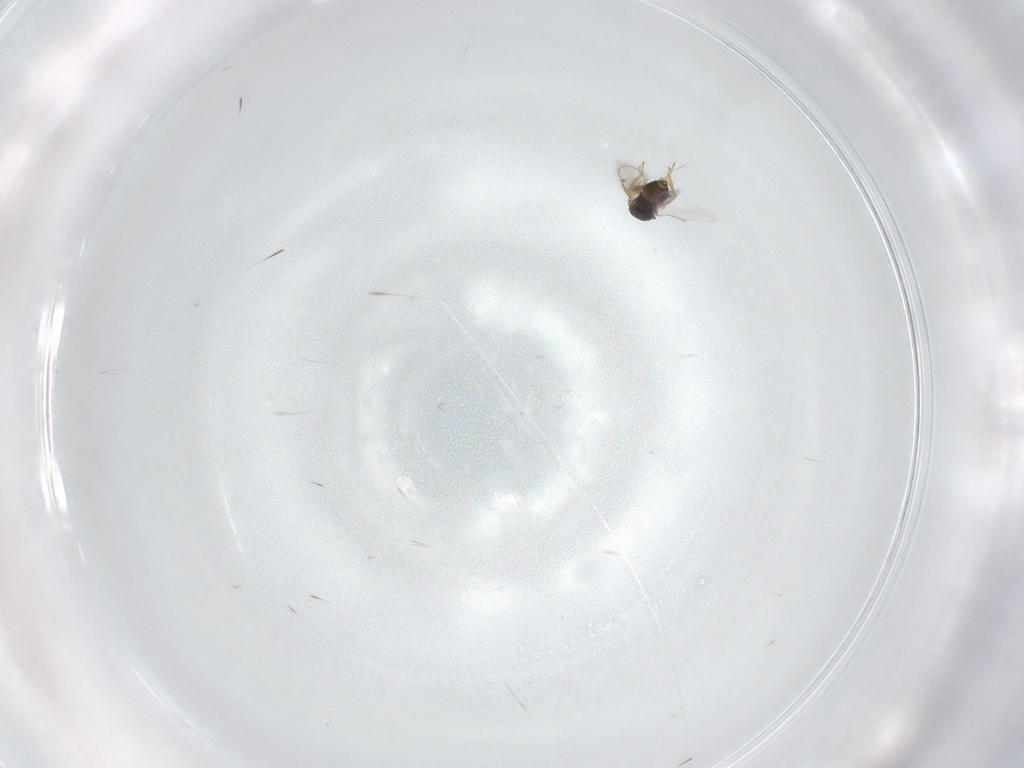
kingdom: Animalia
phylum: Arthropoda
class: Insecta
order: Hymenoptera
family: Eulophidae
